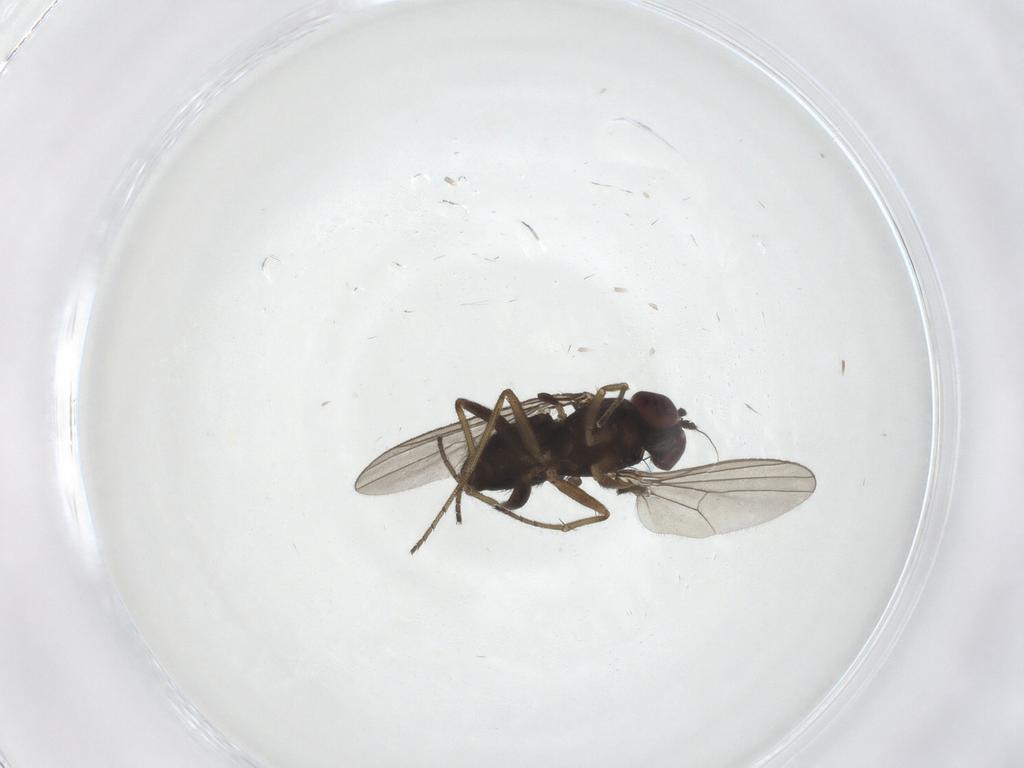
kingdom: Animalia
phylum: Arthropoda
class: Insecta
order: Diptera
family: Dolichopodidae
